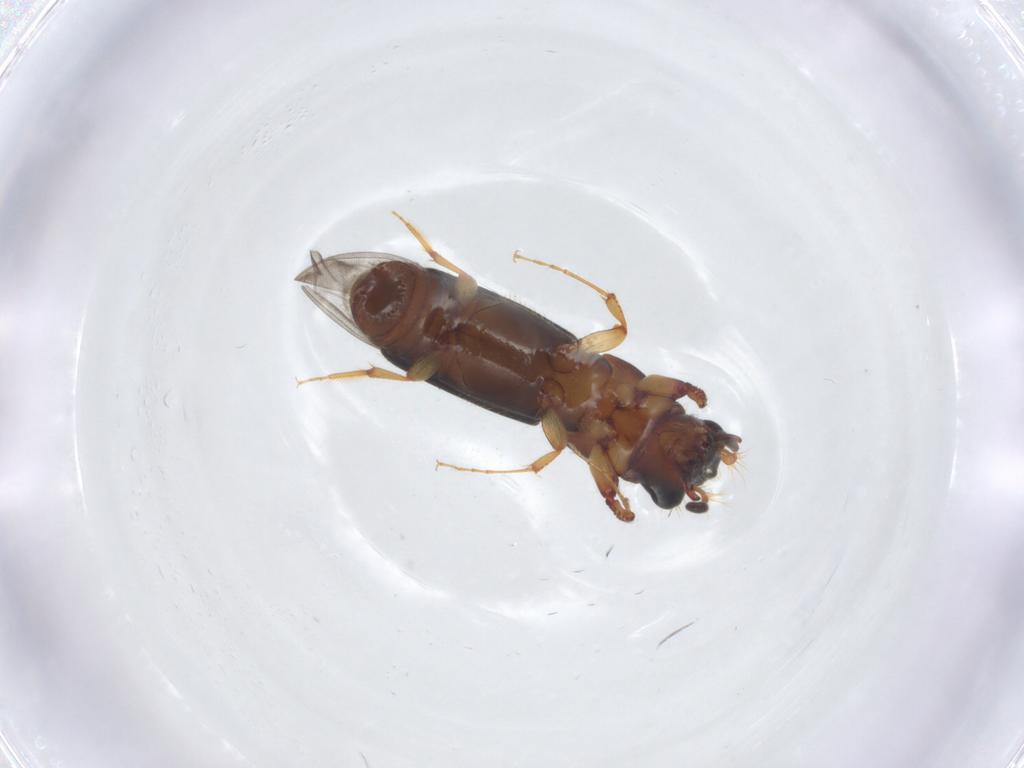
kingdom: Animalia
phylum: Arthropoda
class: Insecta
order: Coleoptera
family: Curculionidae
